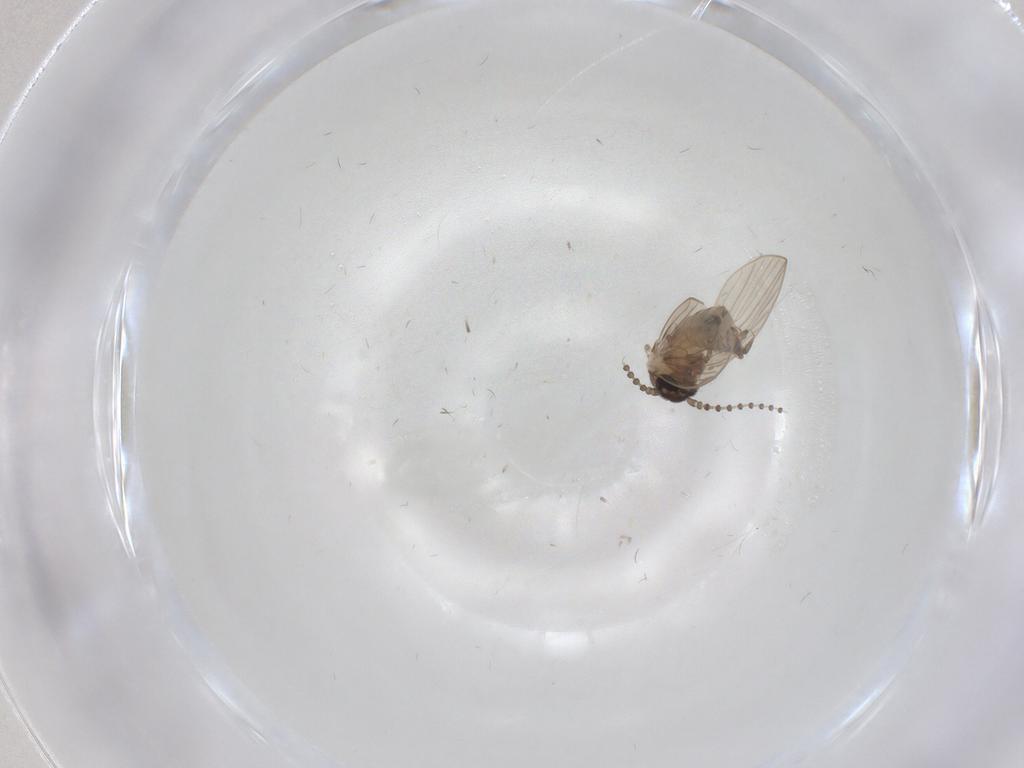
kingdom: Animalia
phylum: Arthropoda
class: Insecta
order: Diptera
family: Psychodidae
